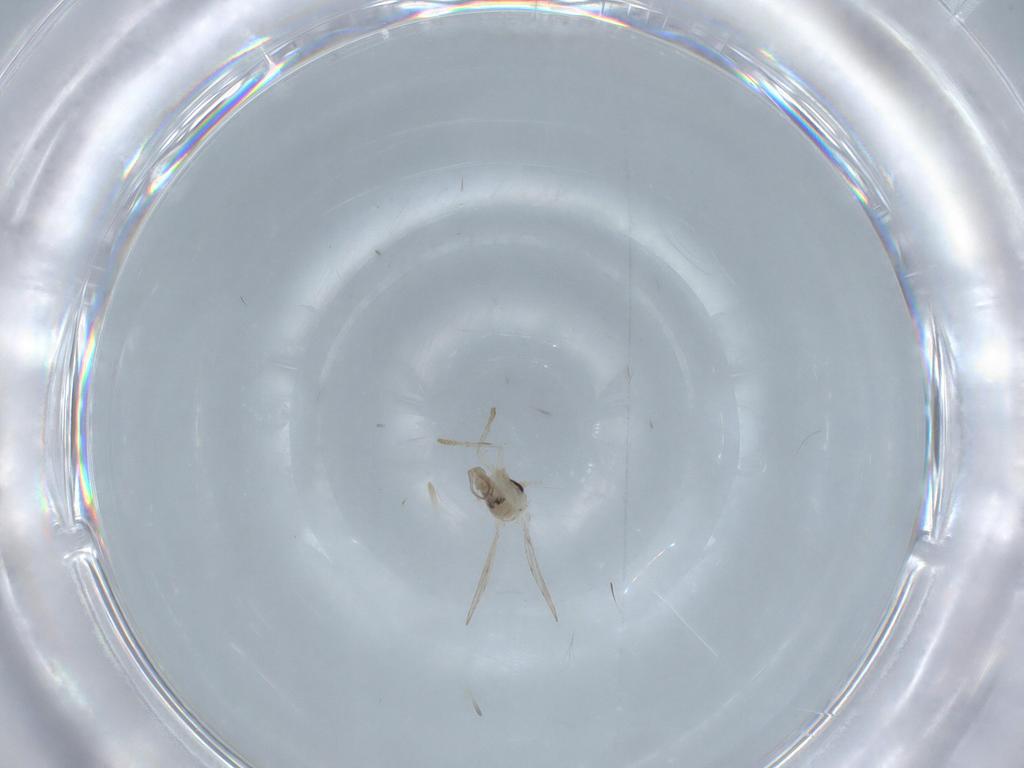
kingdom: Animalia
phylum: Arthropoda
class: Insecta
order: Diptera
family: Psychodidae
